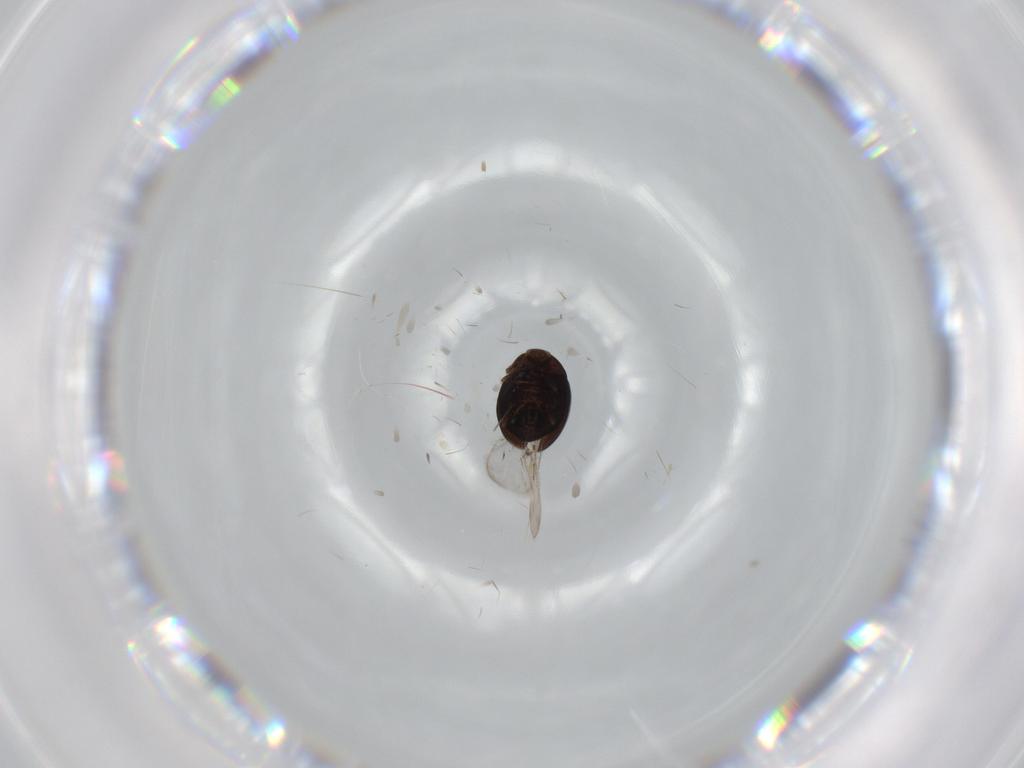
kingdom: Animalia
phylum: Arthropoda
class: Insecta
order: Coleoptera
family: Corylophidae
